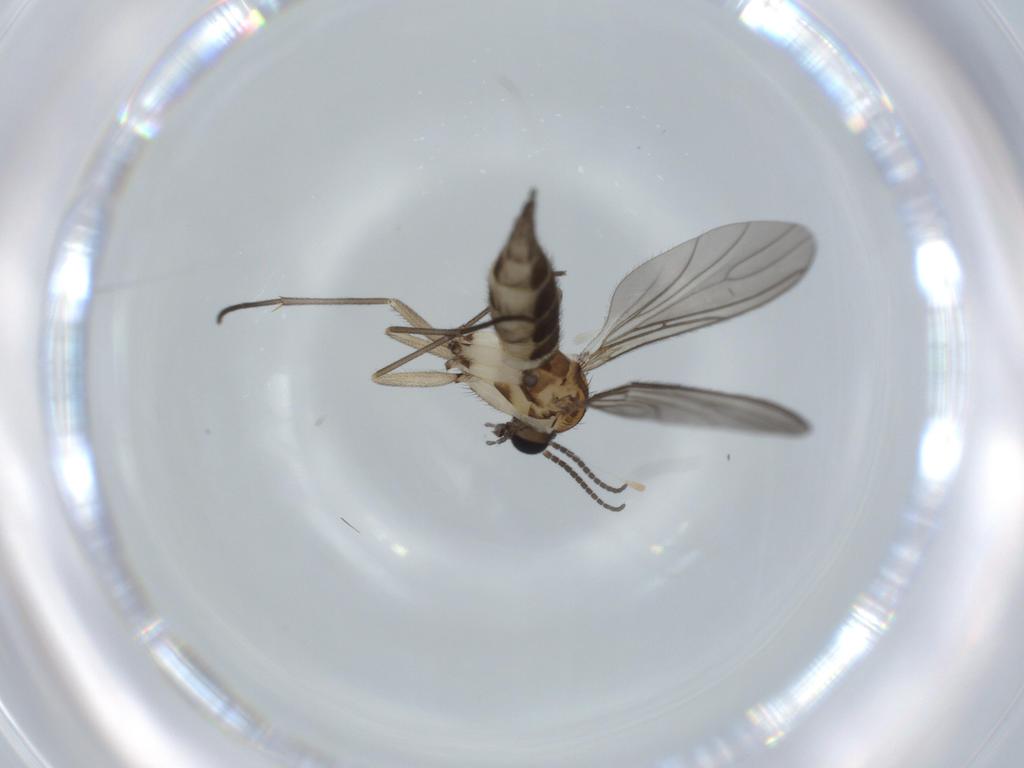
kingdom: Animalia
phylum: Arthropoda
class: Insecta
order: Diptera
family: Sciaridae
